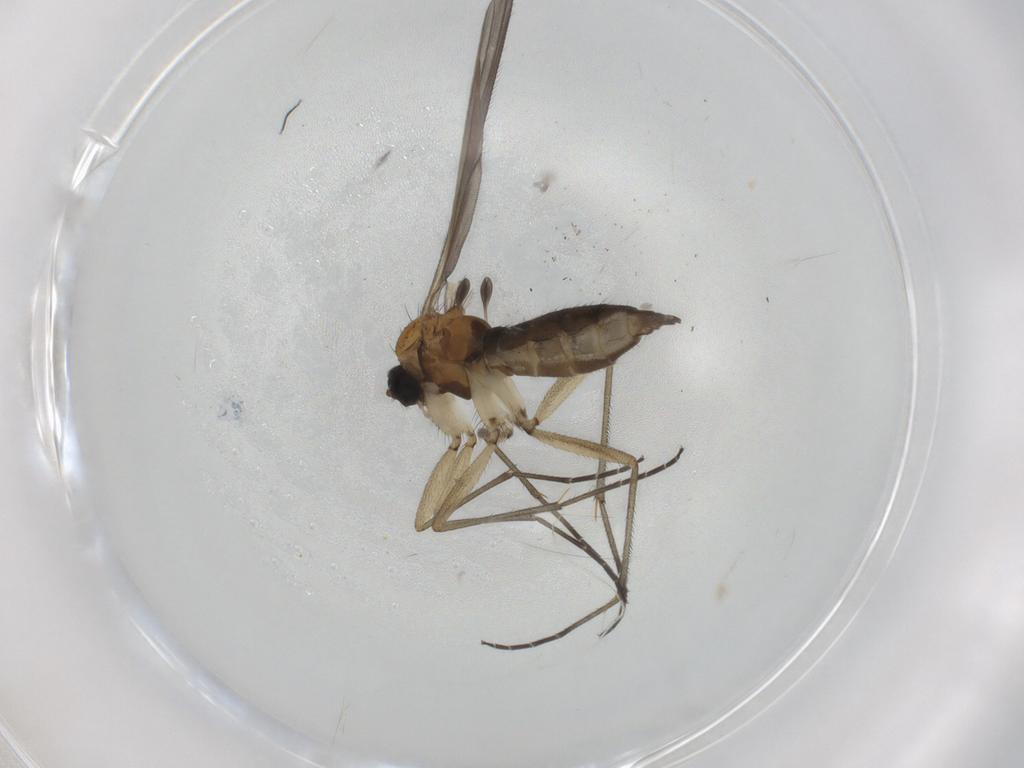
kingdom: Animalia
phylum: Arthropoda
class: Insecta
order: Diptera
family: Sciaridae
